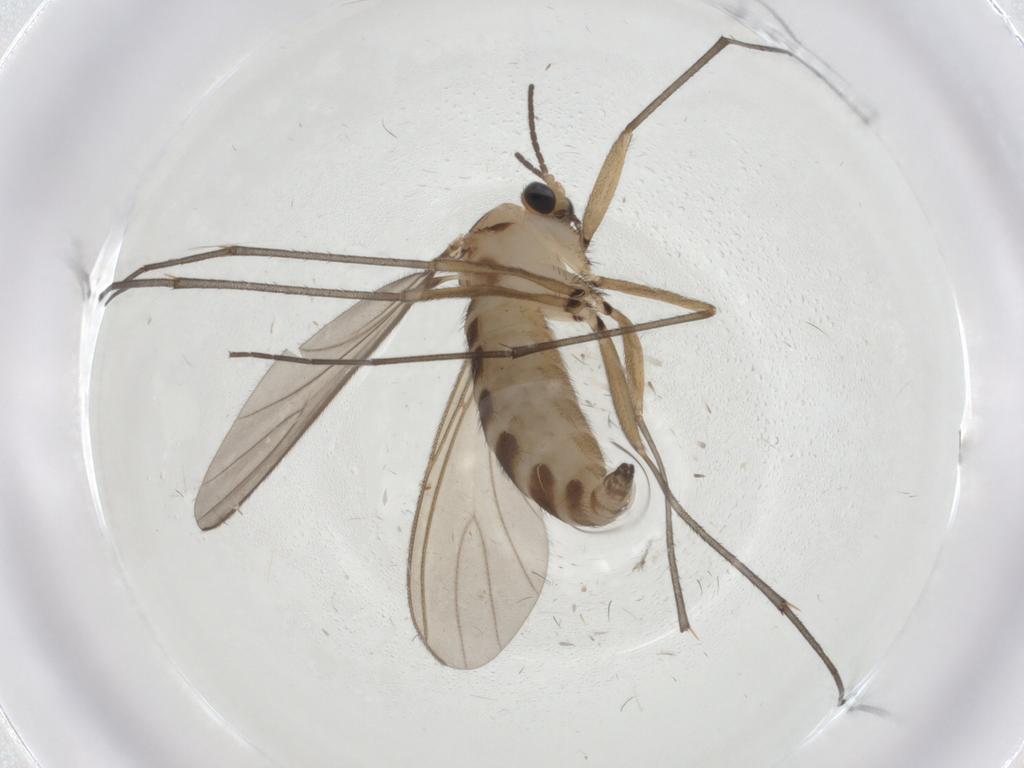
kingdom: Animalia
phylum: Arthropoda
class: Insecta
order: Diptera
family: Sciaridae
